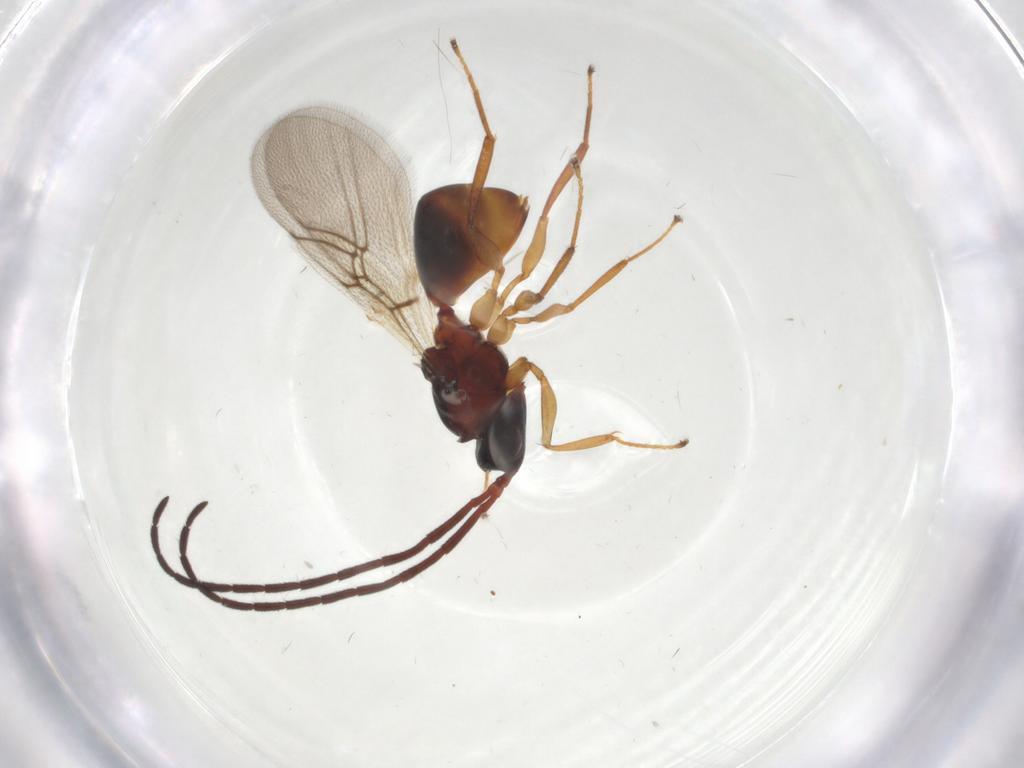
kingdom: Animalia
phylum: Arthropoda
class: Insecta
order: Hymenoptera
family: Figitidae
